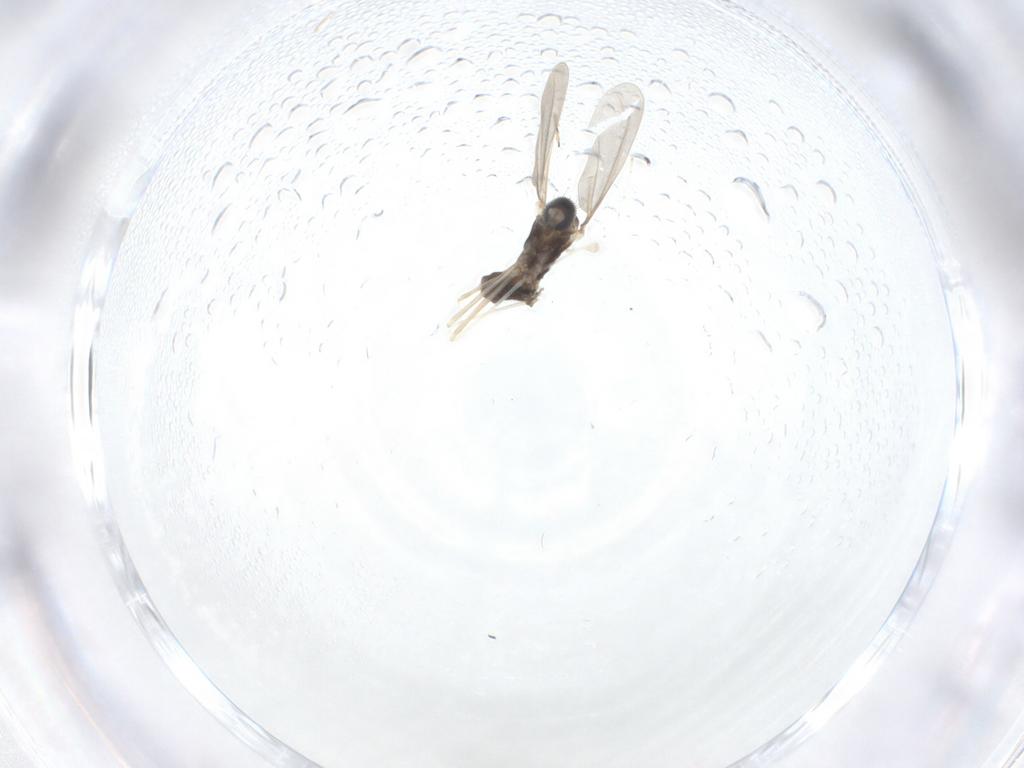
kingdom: Animalia
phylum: Arthropoda
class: Insecta
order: Diptera
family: Cecidomyiidae
